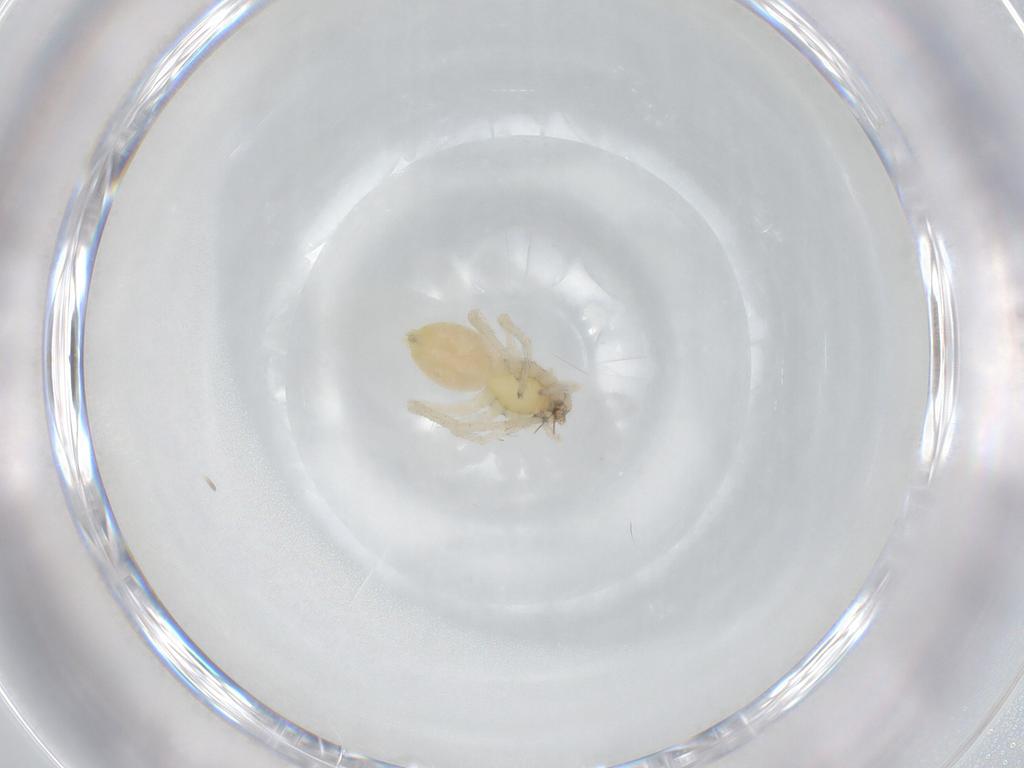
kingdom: Animalia
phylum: Arthropoda
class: Arachnida
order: Araneae
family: Anyphaenidae
